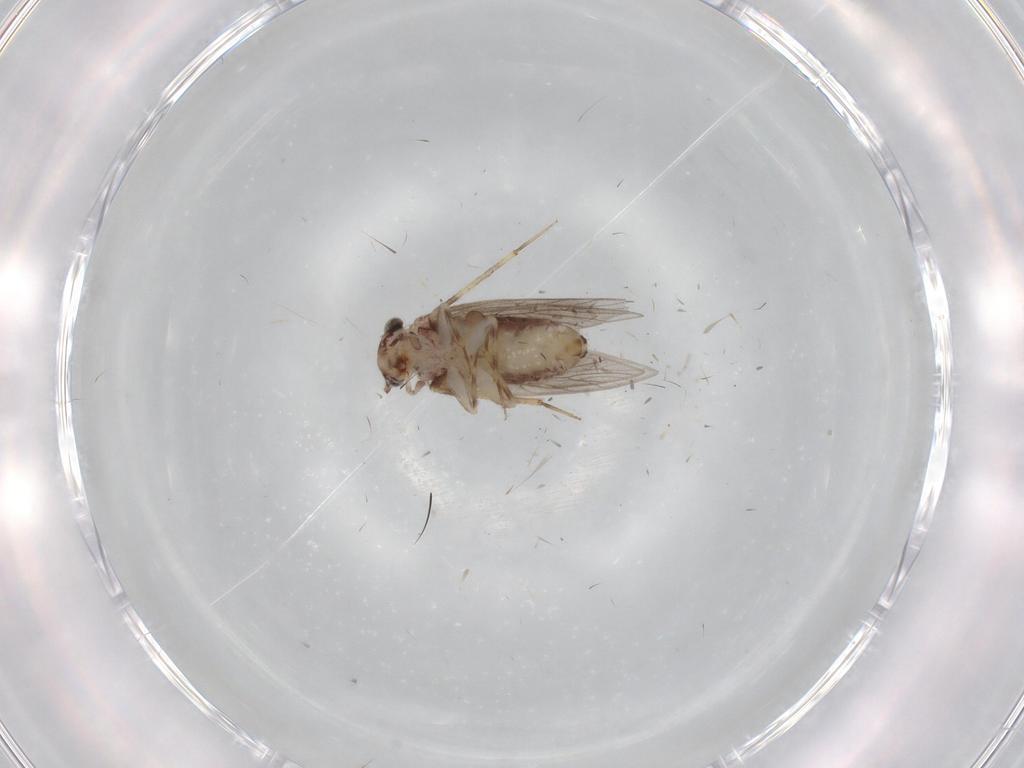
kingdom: Animalia
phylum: Arthropoda
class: Insecta
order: Psocodea
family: Lepidopsocidae
